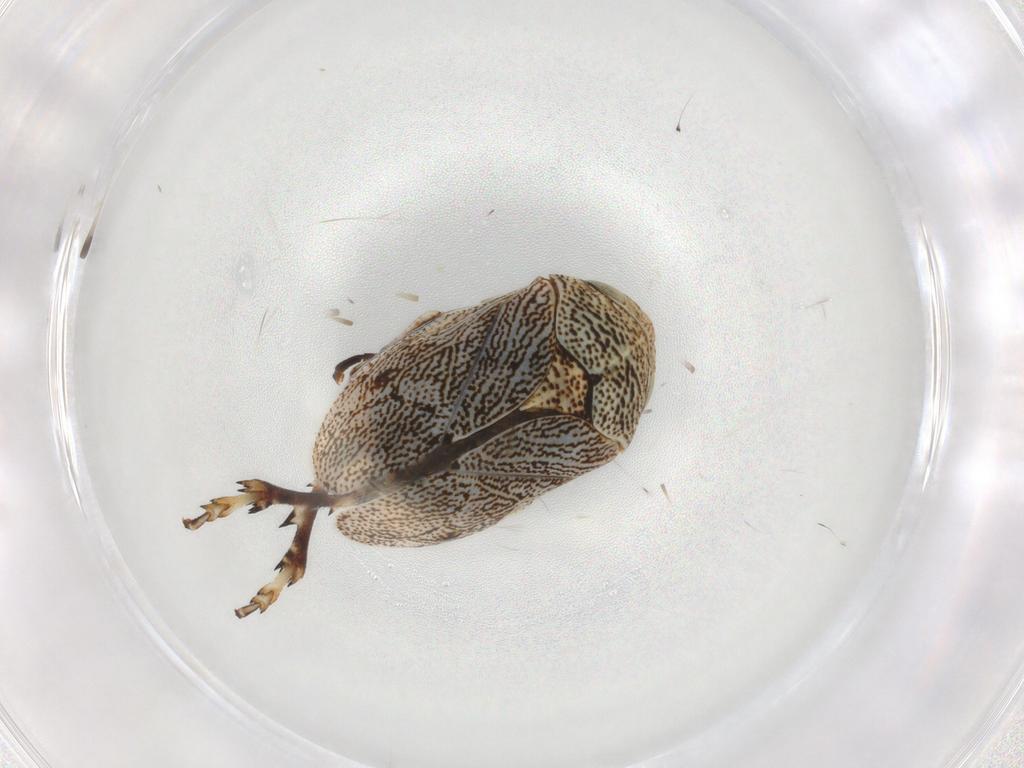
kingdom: Animalia
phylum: Arthropoda
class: Insecta
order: Hemiptera
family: Clastopteridae
